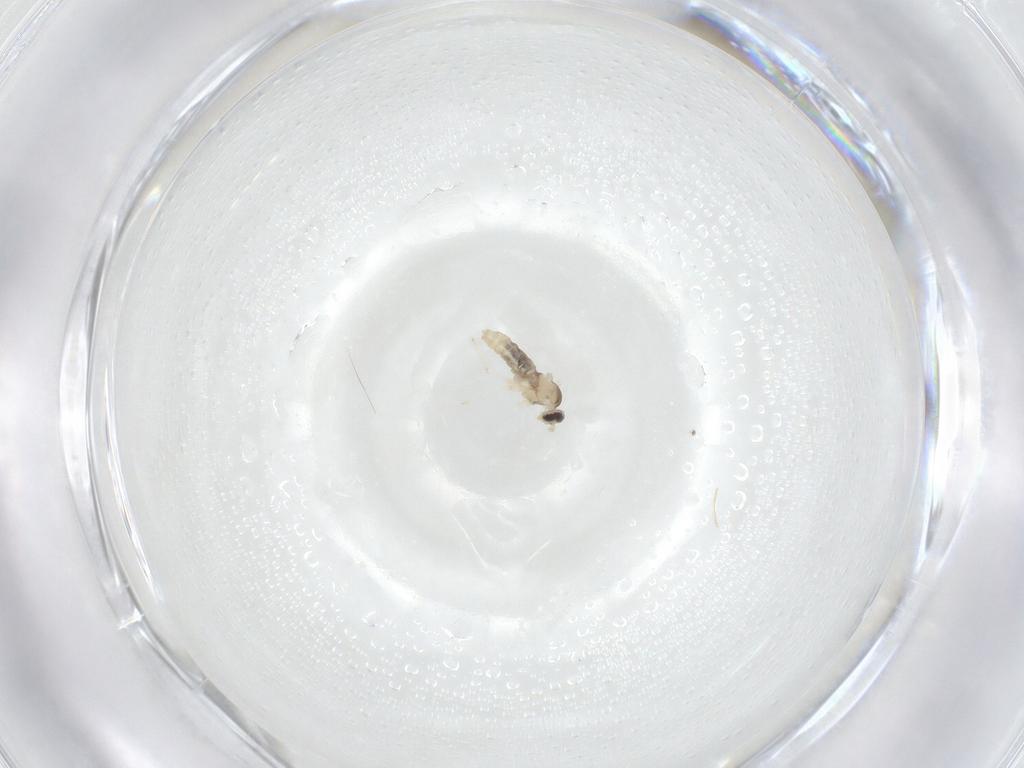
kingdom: Animalia
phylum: Arthropoda
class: Insecta
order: Diptera
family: Cecidomyiidae
